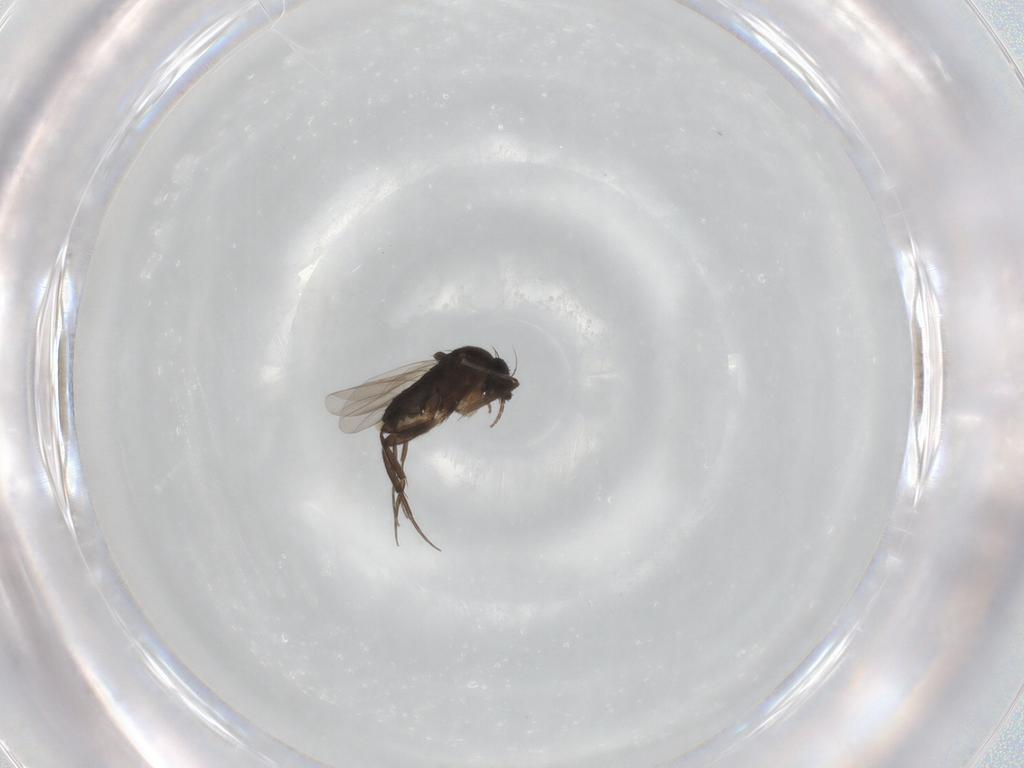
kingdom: Animalia
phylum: Arthropoda
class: Insecta
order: Diptera
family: Phoridae
